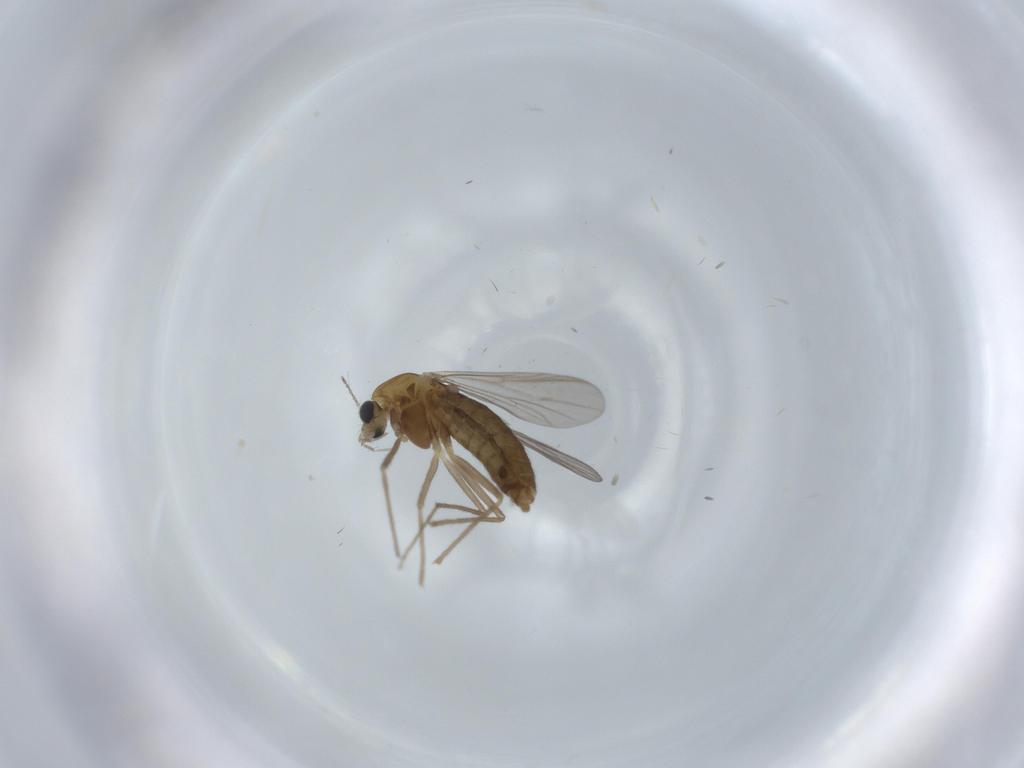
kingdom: Animalia
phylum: Arthropoda
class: Insecta
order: Diptera
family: Chironomidae
